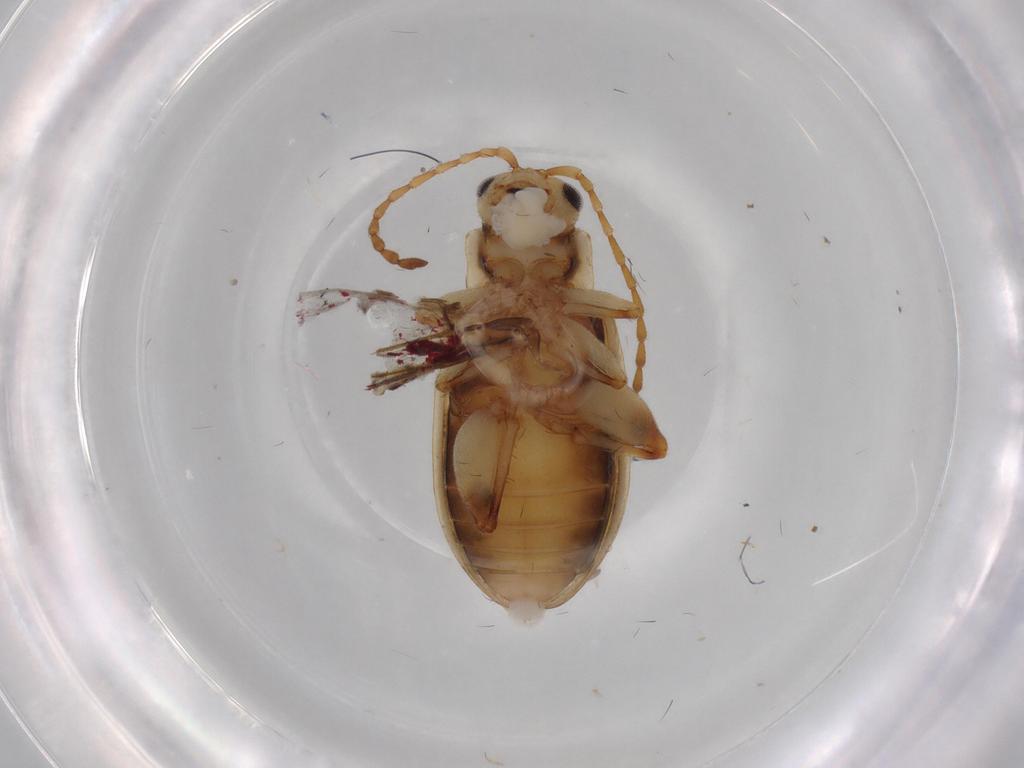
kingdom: Animalia
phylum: Arthropoda
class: Insecta
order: Coleoptera
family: Chrysomelidae
